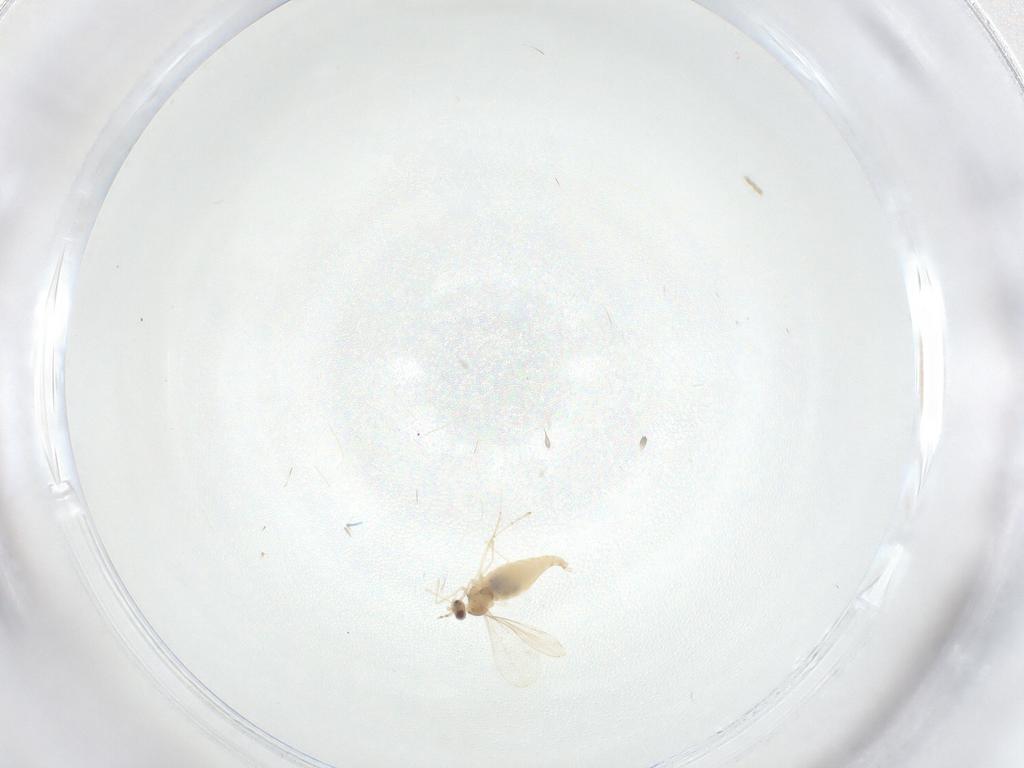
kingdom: Animalia
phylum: Arthropoda
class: Insecta
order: Diptera
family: Cecidomyiidae
